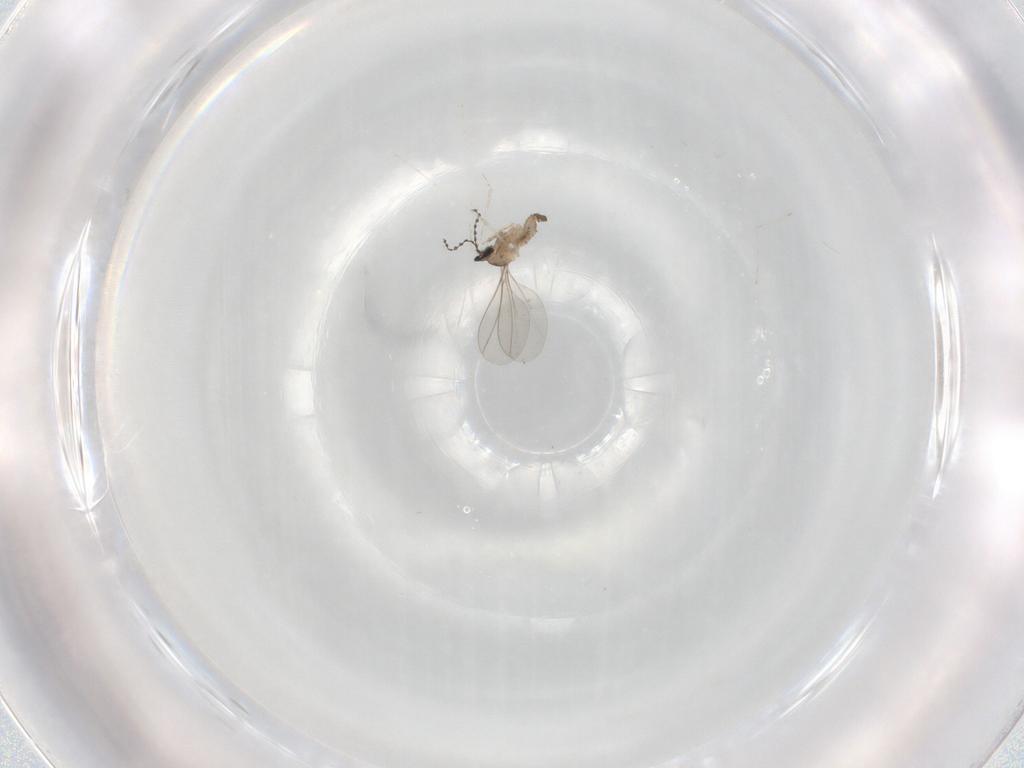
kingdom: Animalia
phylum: Arthropoda
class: Insecta
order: Diptera
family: Cecidomyiidae
